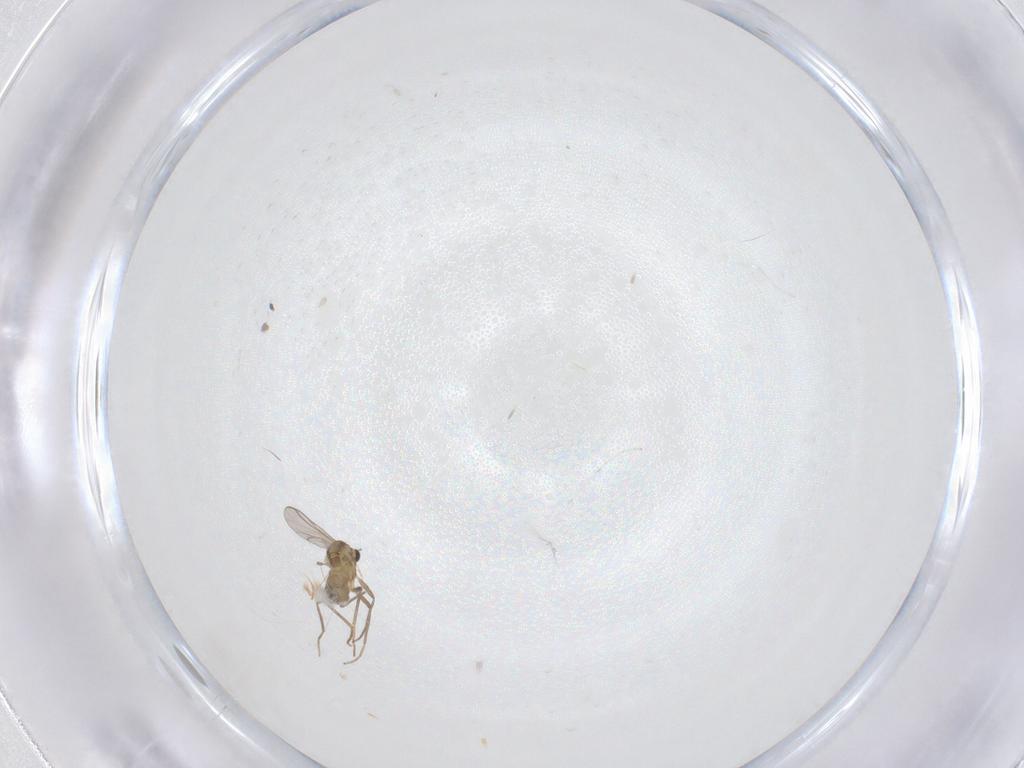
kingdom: Animalia
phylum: Arthropoda
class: Insecta
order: Diptera
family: Chironomidae
